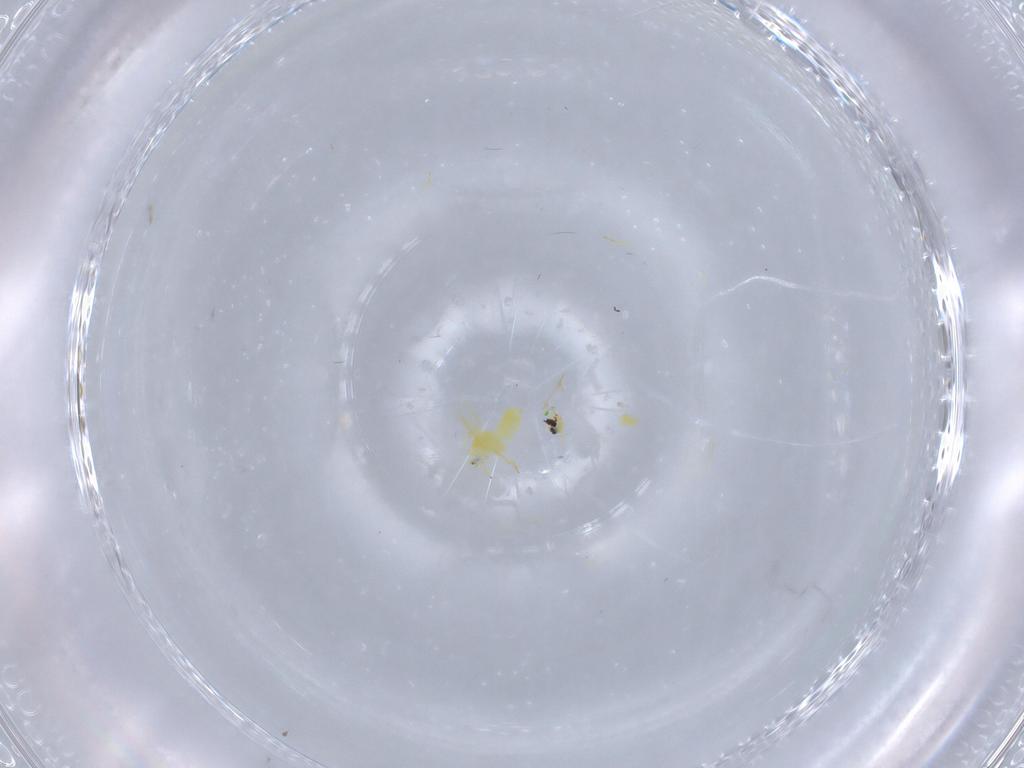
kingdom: Animalia
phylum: Arthropoda
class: Insecta
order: Hemiptera
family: Aleyrodidae
